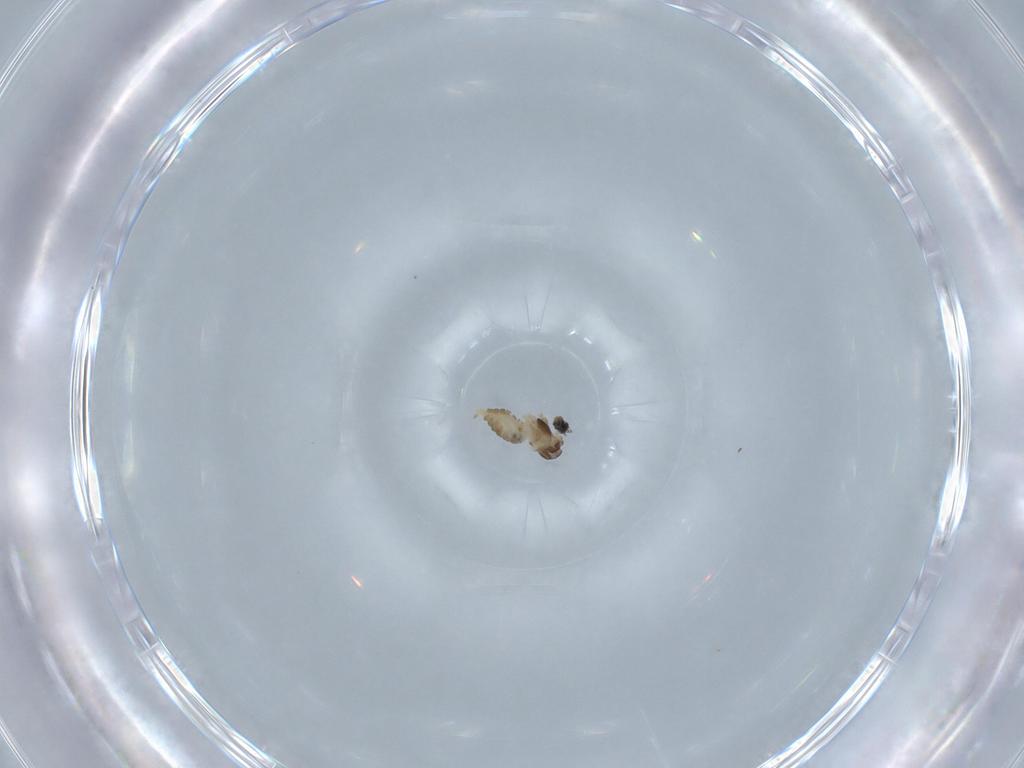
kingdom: Animalia
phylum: Arthropoda
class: Insecta
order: Diptera
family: Cecidomyiidae
